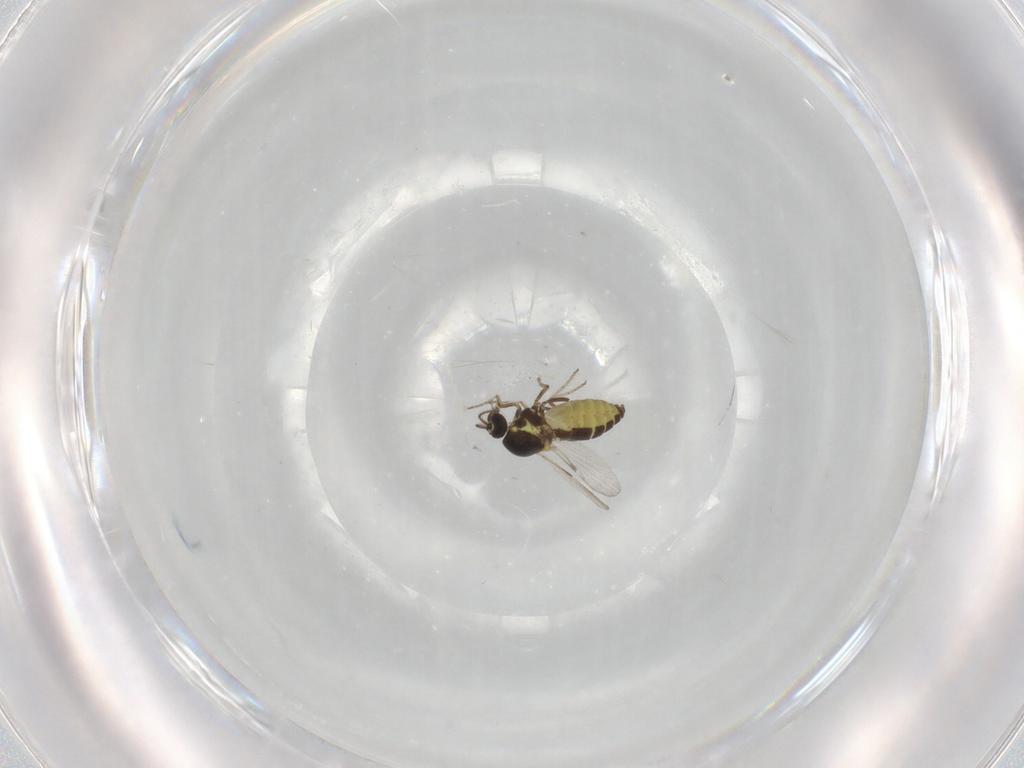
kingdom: Animalia
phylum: Arthropoda
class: Insecta
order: Diptera
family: Ceratopogonidae
